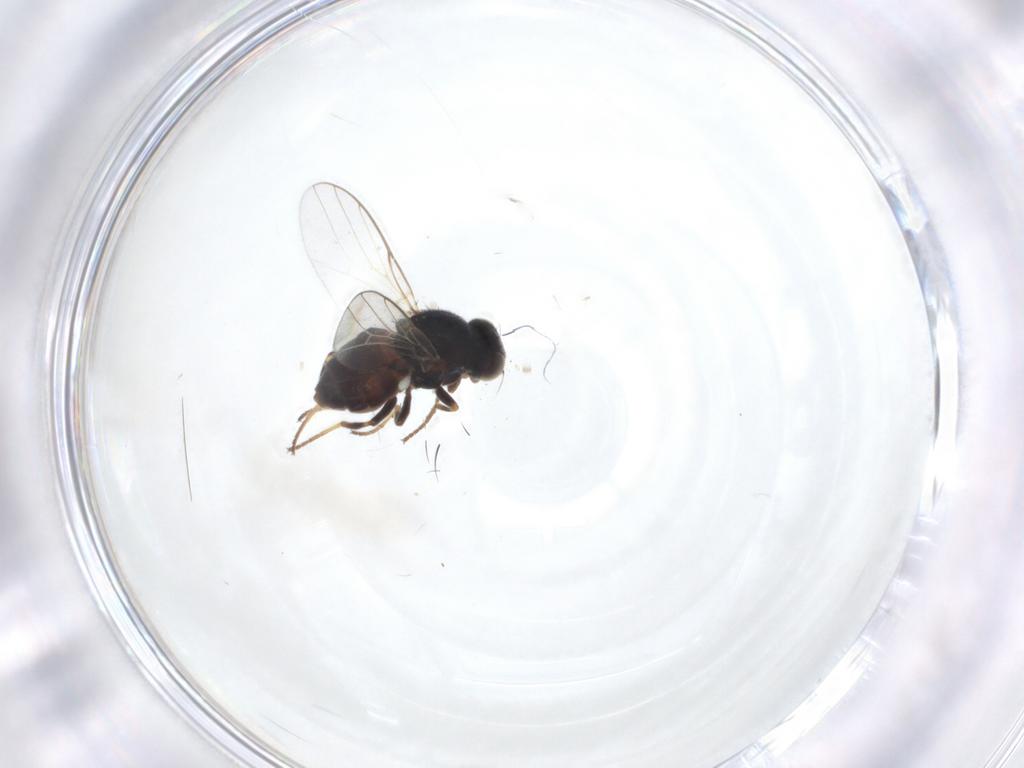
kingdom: Animalia
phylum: Arthropoda
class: Insecta
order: Diptera
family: Chloropidae
